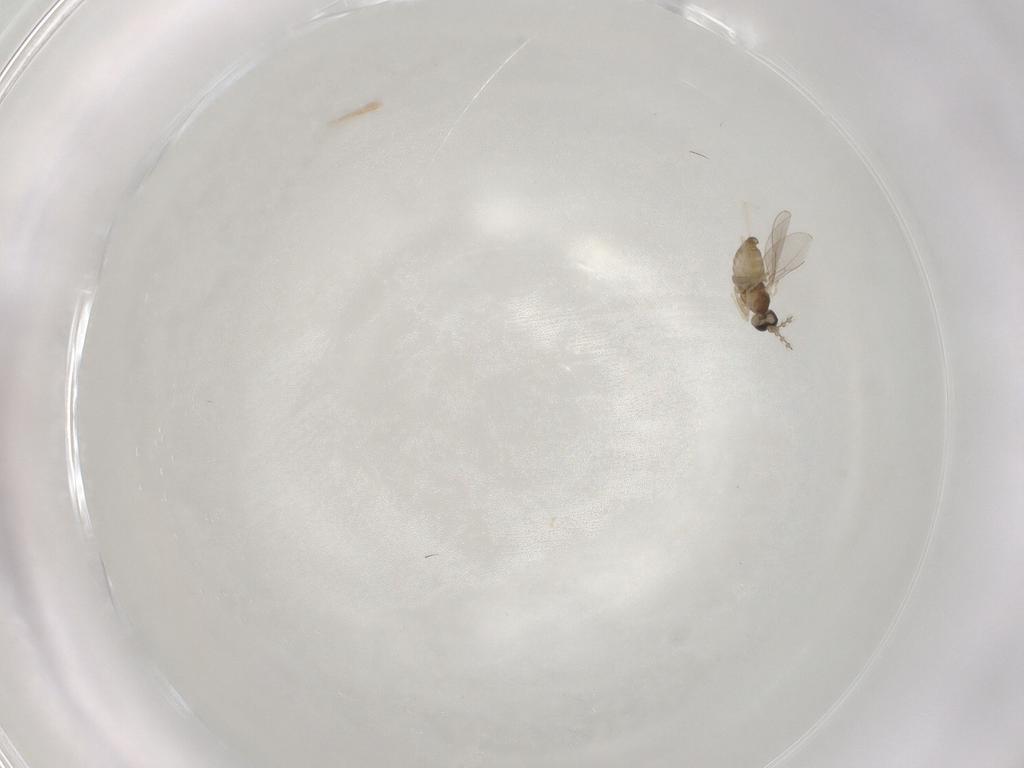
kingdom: Animalia
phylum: Arthropoda
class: Insecta
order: Diptera
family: Cecidomyiidae
